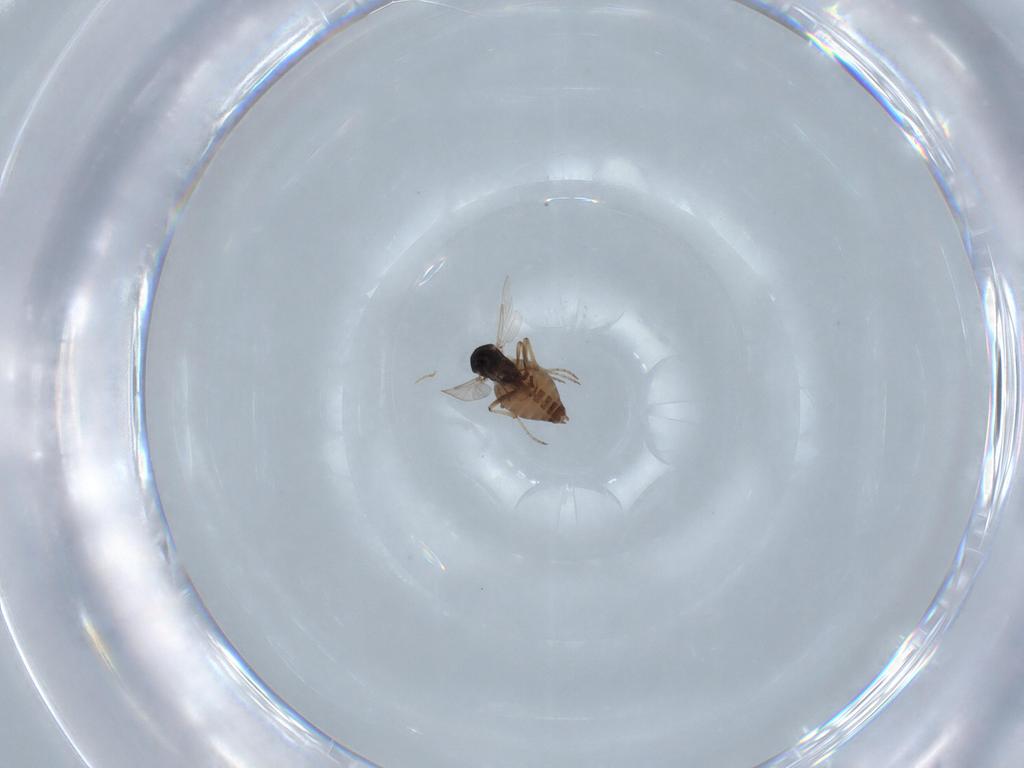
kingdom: Animalia
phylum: Arthropoda
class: Insecta
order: Diptera
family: Ceratopogonidae
